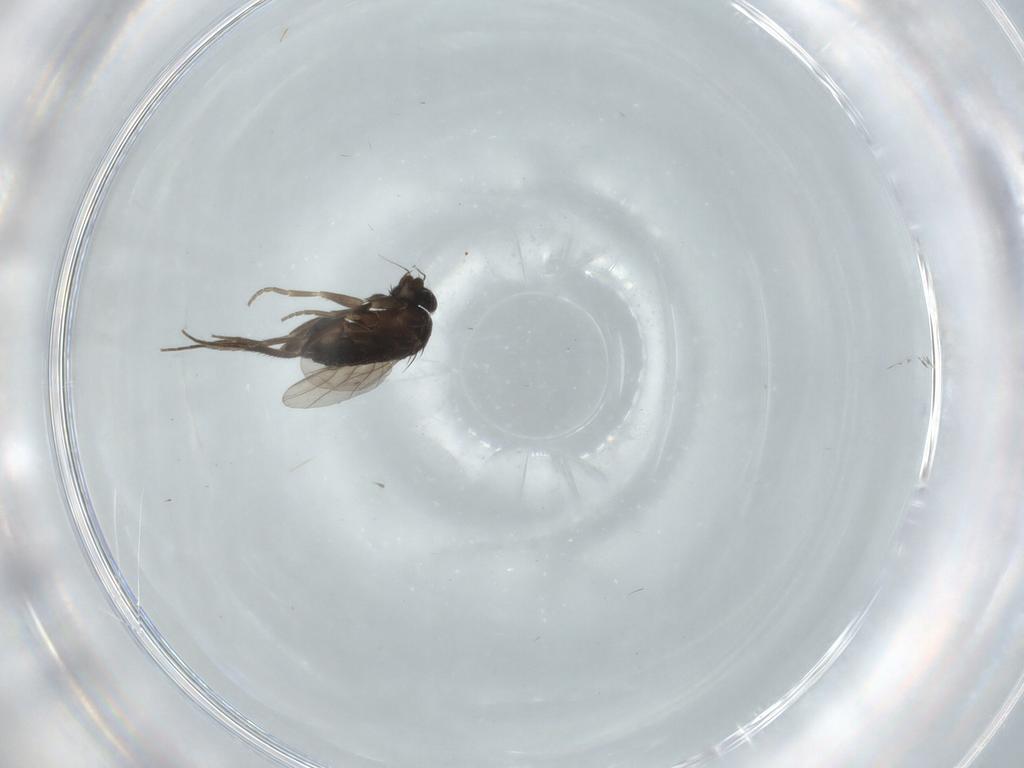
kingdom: Animalia
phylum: Arthropoda
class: Insecta
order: Diptera
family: Cecidomyiidae
